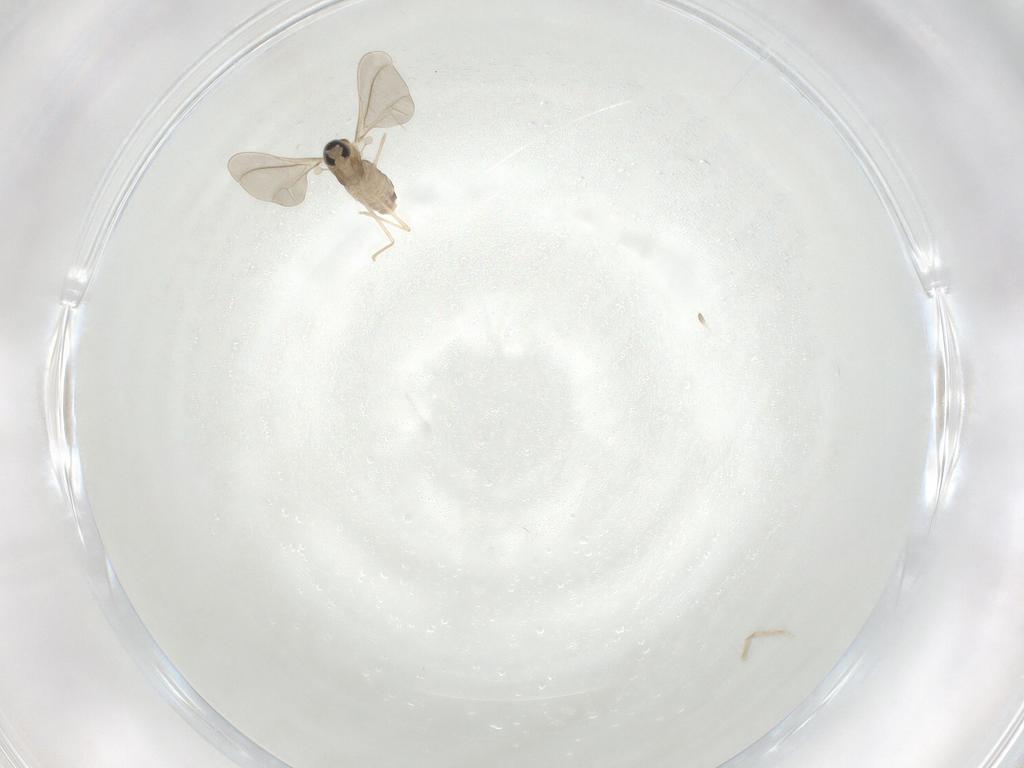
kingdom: Animalia
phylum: Arthropoda
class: Insecta
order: Diptera
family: Cecidomyiidae
